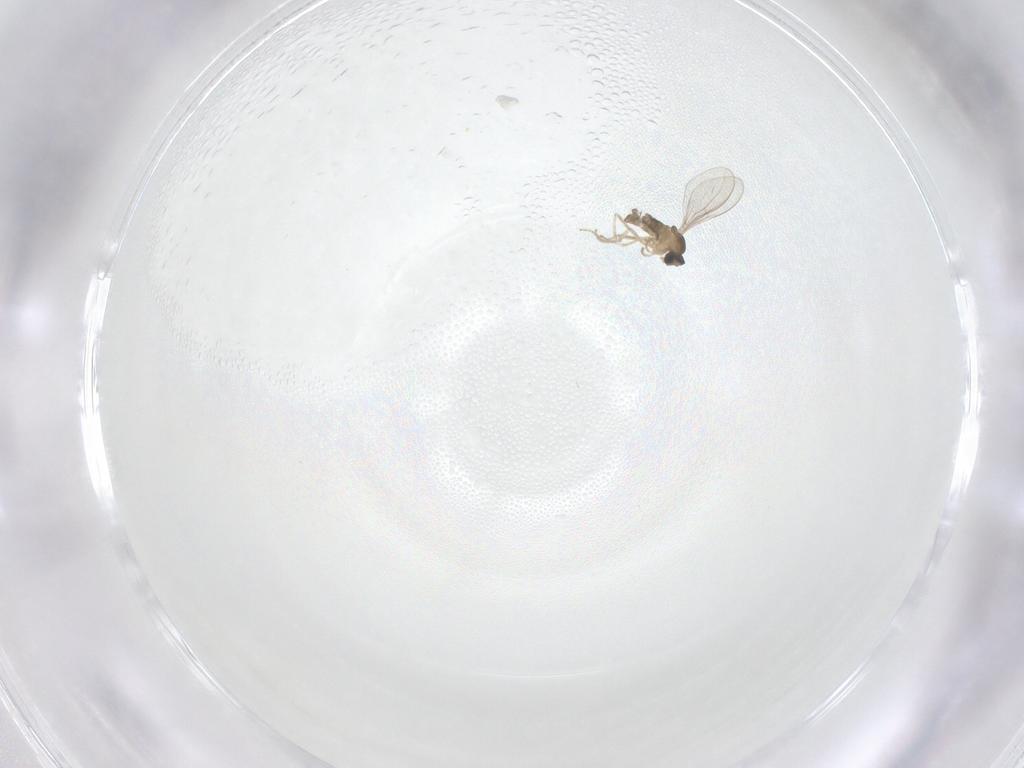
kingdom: Animalia
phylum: Arthropoda
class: Insecta
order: Diptera
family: Cecidomyiidae
